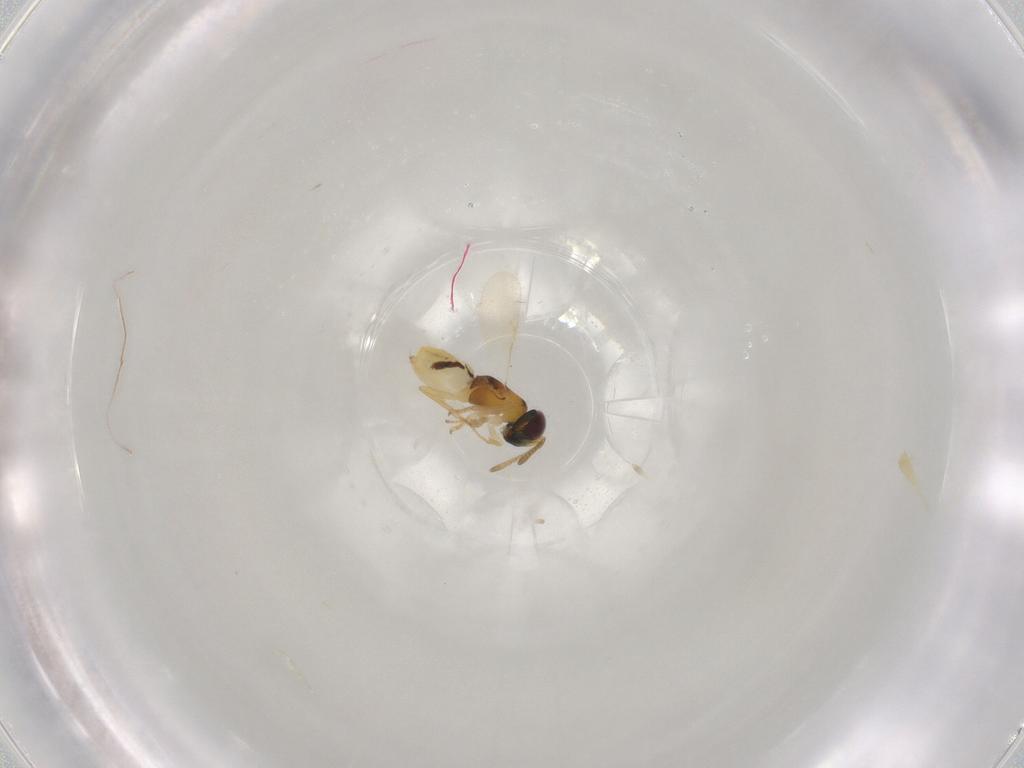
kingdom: Animalia
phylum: Arthropoda
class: Insecta
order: Hymenoptera
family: Encyrtidae
